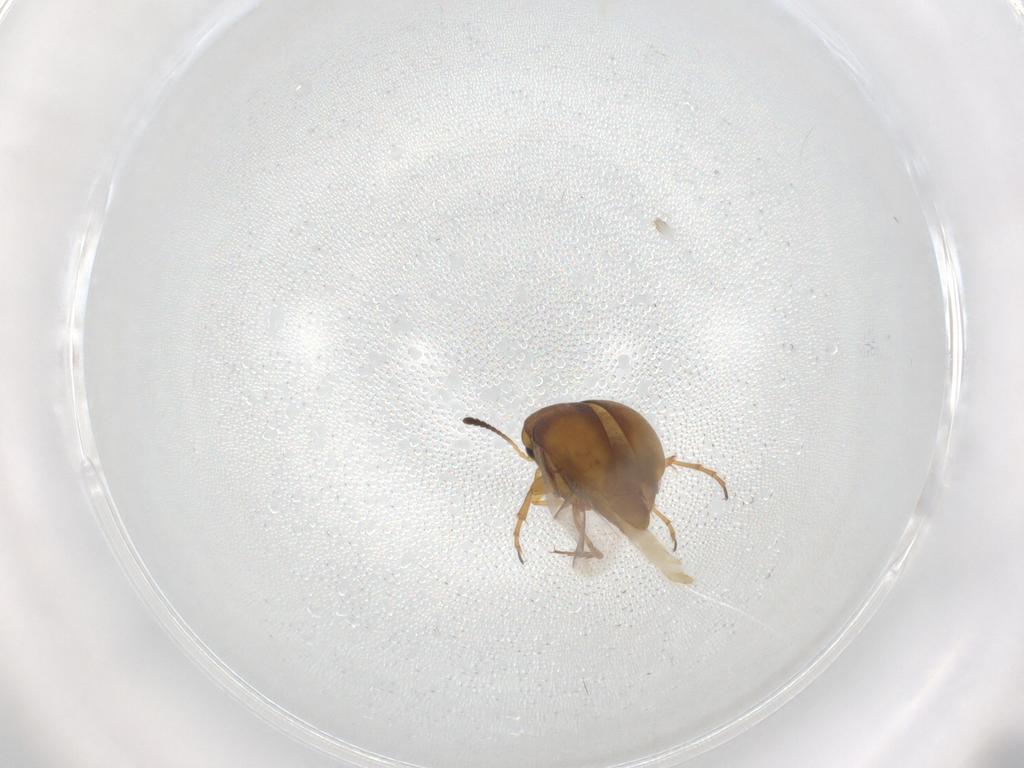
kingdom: Animalia
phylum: Arthropoda
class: Insecta
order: Coleoptera
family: Scraptiidae
